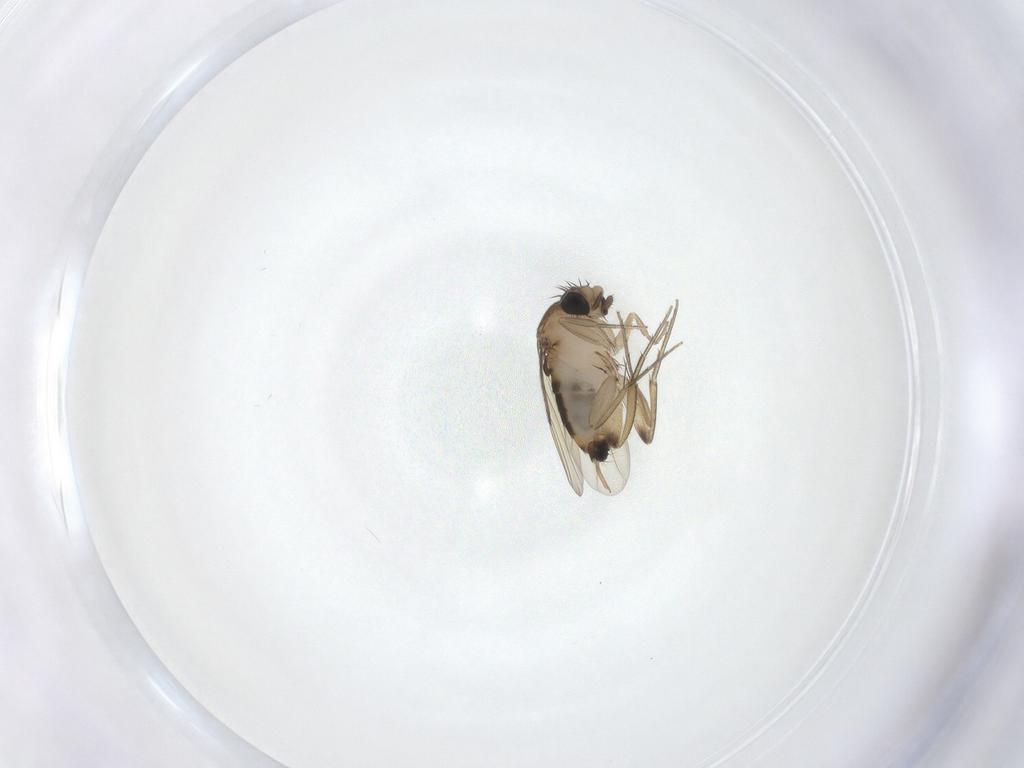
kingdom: Animalia
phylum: Arthropoda
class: Insecta
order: Diptera
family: Phoridae
